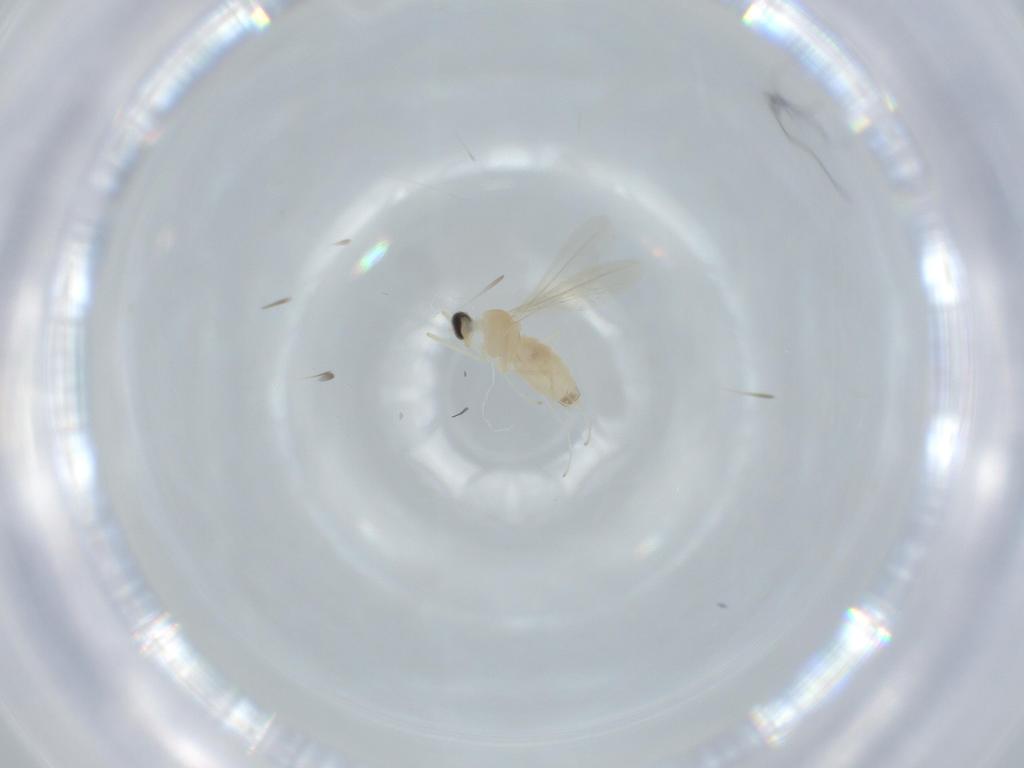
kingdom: Animalia
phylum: Arthropoda
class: Insecta
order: Diptera
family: Cecidomyiidae
